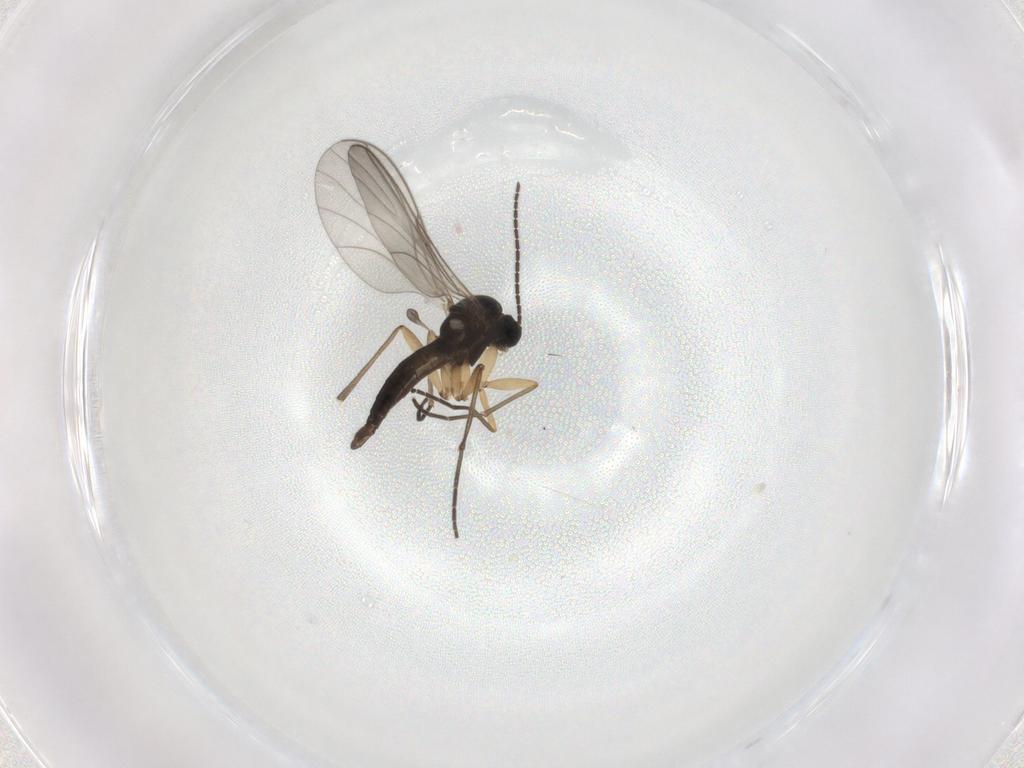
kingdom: Animalia
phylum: Arthropoda
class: Insecta
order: Diptera
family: Sciaridae
